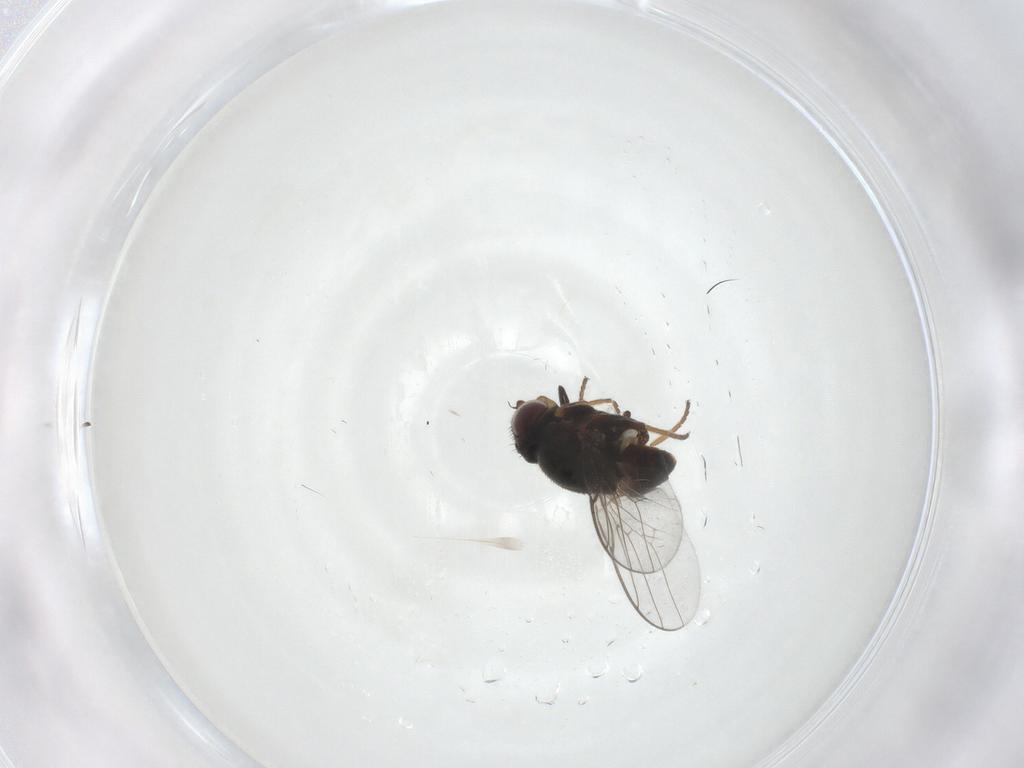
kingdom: Animalia
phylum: Arthropoda
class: Insecta
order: Diptera
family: Chloropidae
